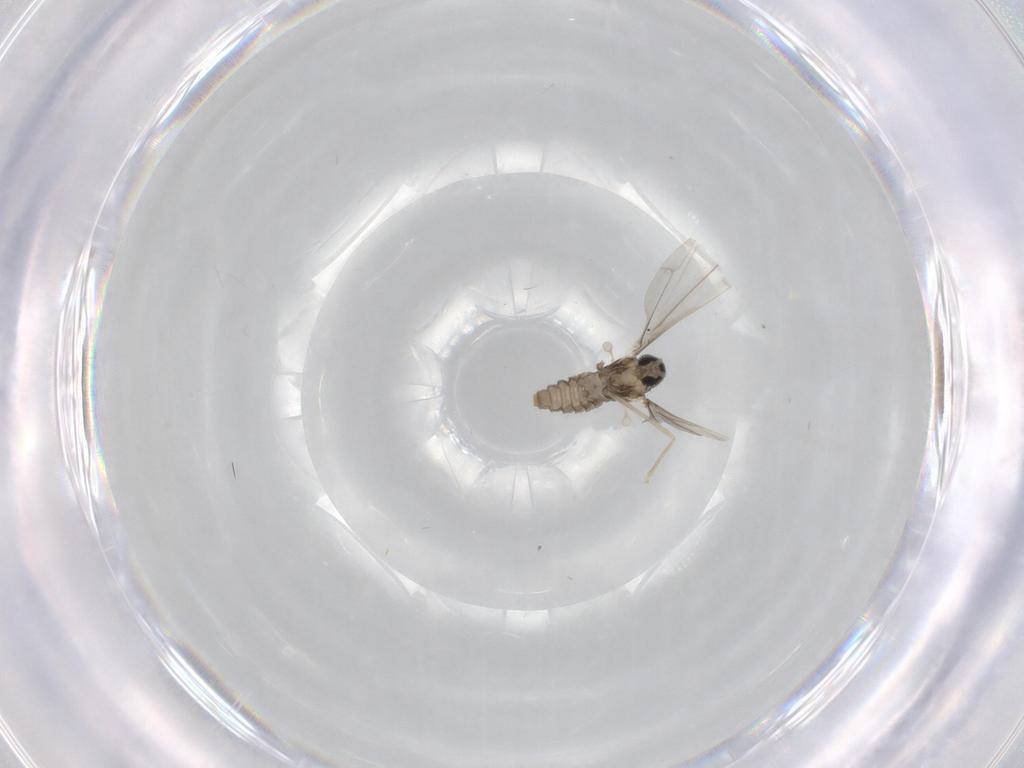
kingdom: Animalia
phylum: Arthropoda
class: Insecta
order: Diptera
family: Cecidomyiidae
